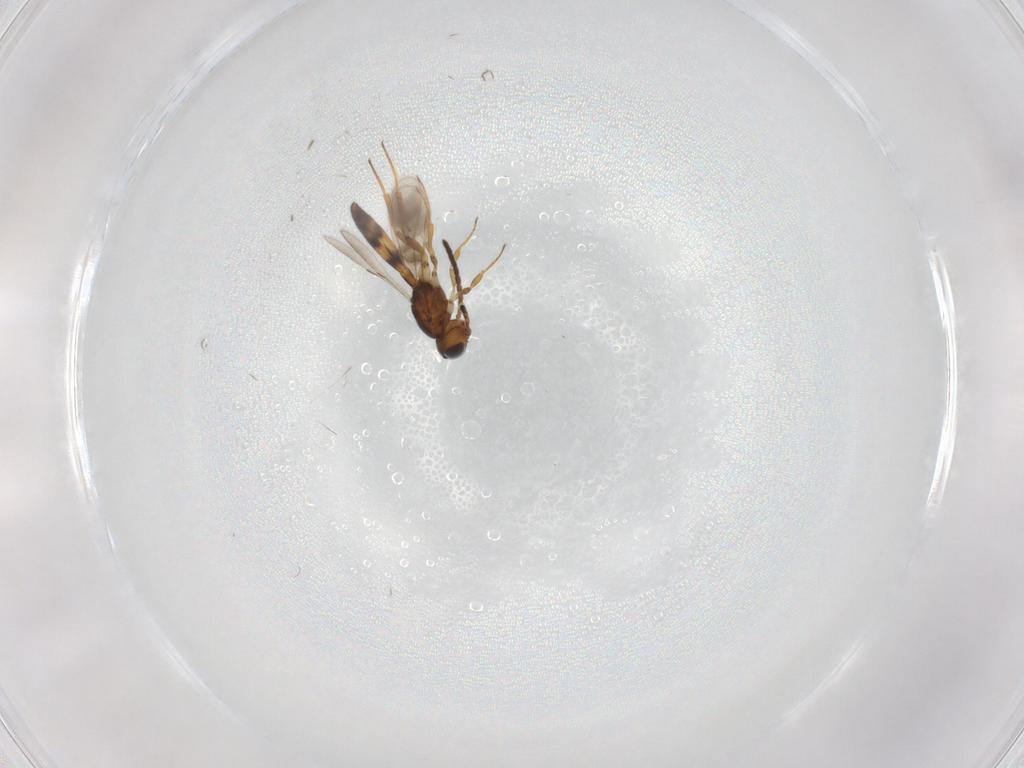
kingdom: Animalia
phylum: Arthropoda
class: Insecta
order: Hymenoptera
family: Scelionidae
